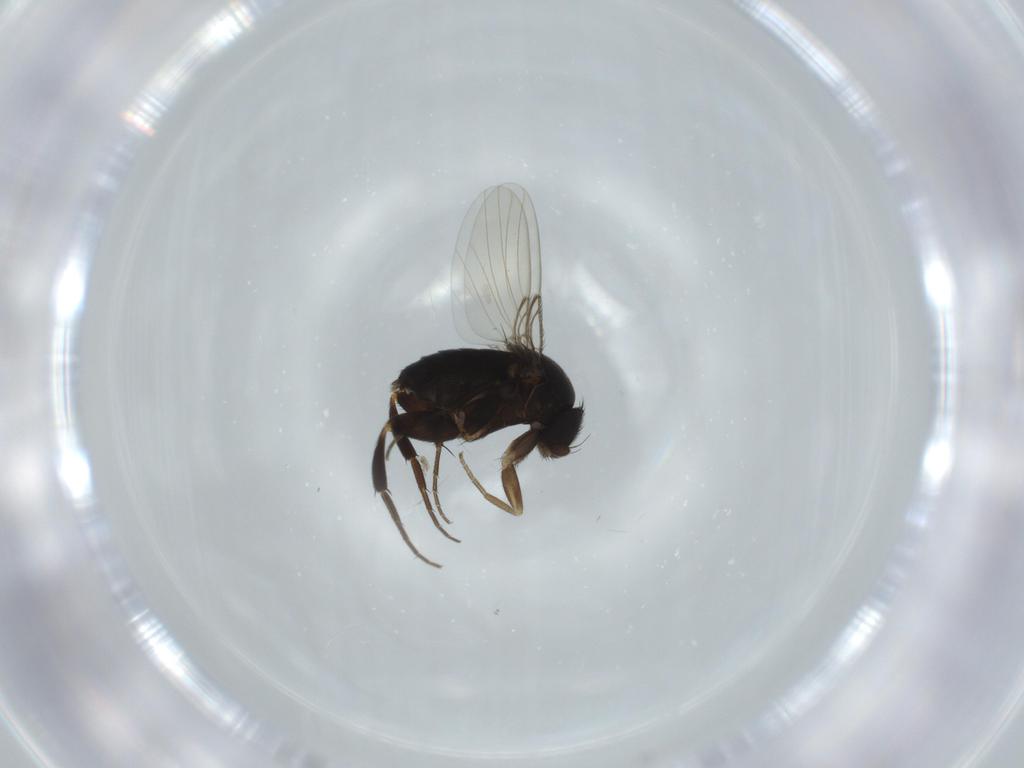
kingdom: Animalia
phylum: Arthropoda
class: Insecta
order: Diptera
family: Phoridae
